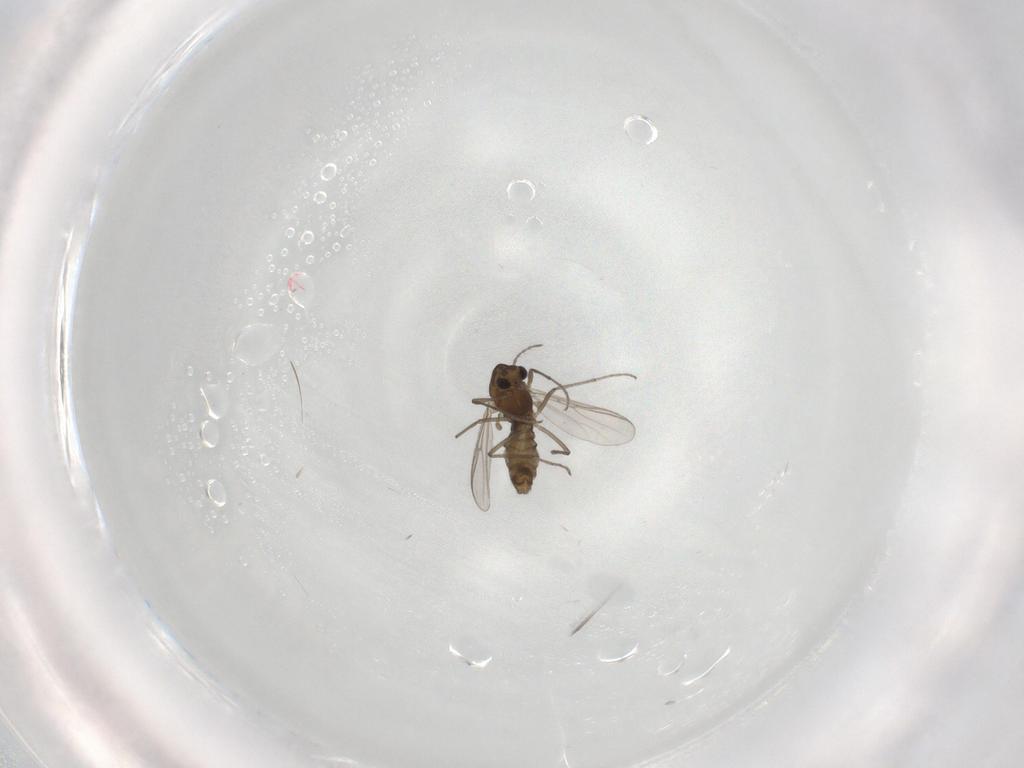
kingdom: Animalia
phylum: Arthropoda
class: Insecta
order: Diptera
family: Chironomidae
